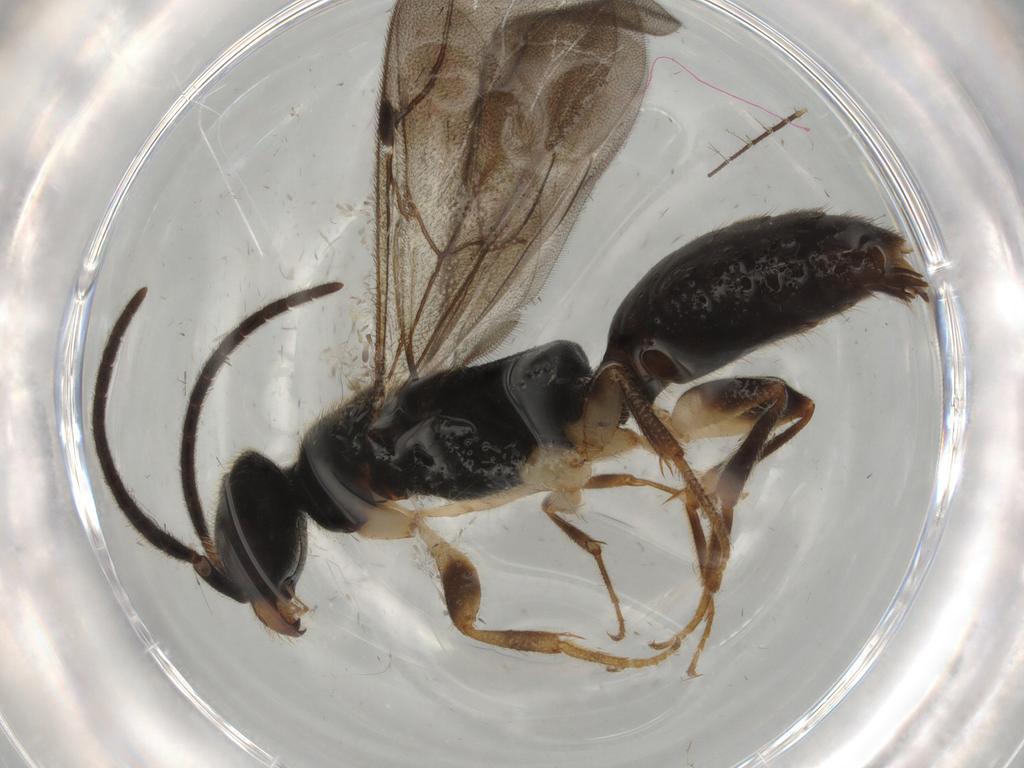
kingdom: Animalia
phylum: Arthropoda
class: Insecta
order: Hymenoptera
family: Bethylidae
